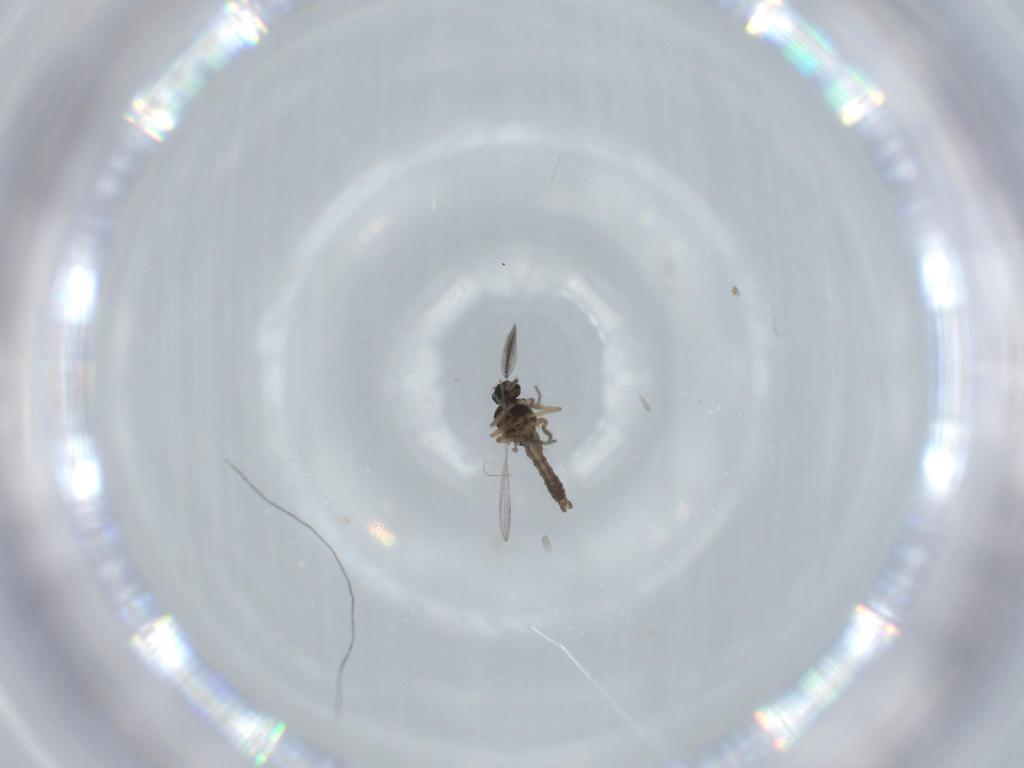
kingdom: Animalia
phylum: Arthropoda
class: Insecta
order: Diptera
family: Ceratopogonidae
